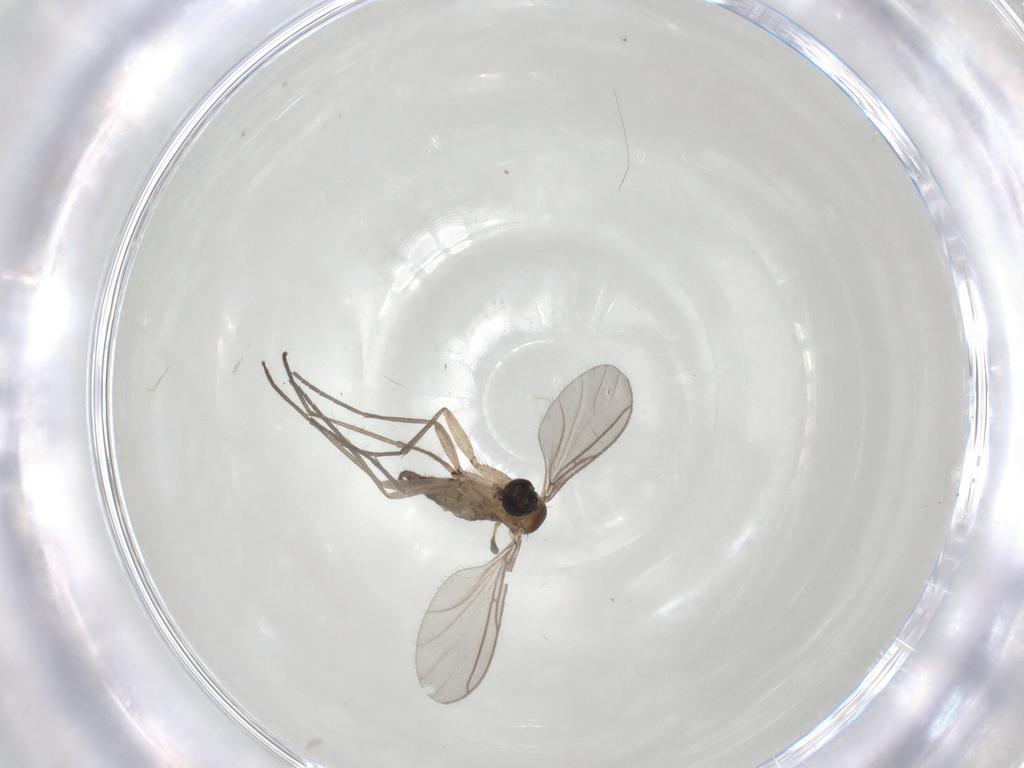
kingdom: Animalia
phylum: Arthropoda
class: Insecta
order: Diptera
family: Sciaridae
